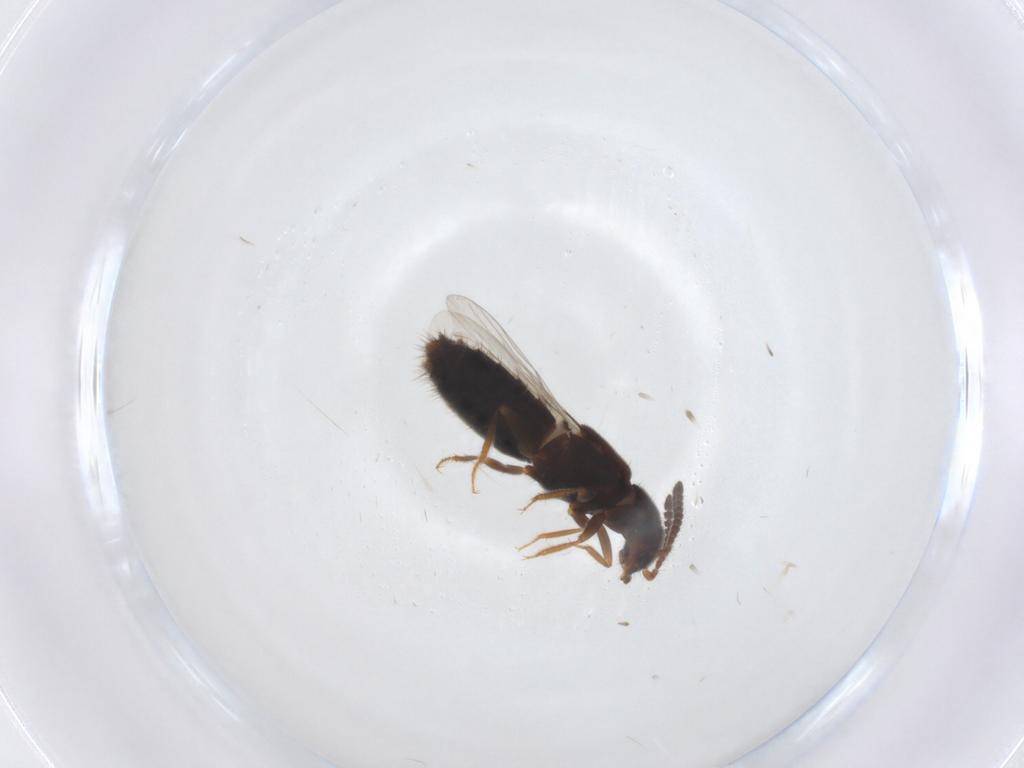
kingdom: Animalia
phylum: Arthropoda
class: Insecta
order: Coleoptera
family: Staphylinidae
